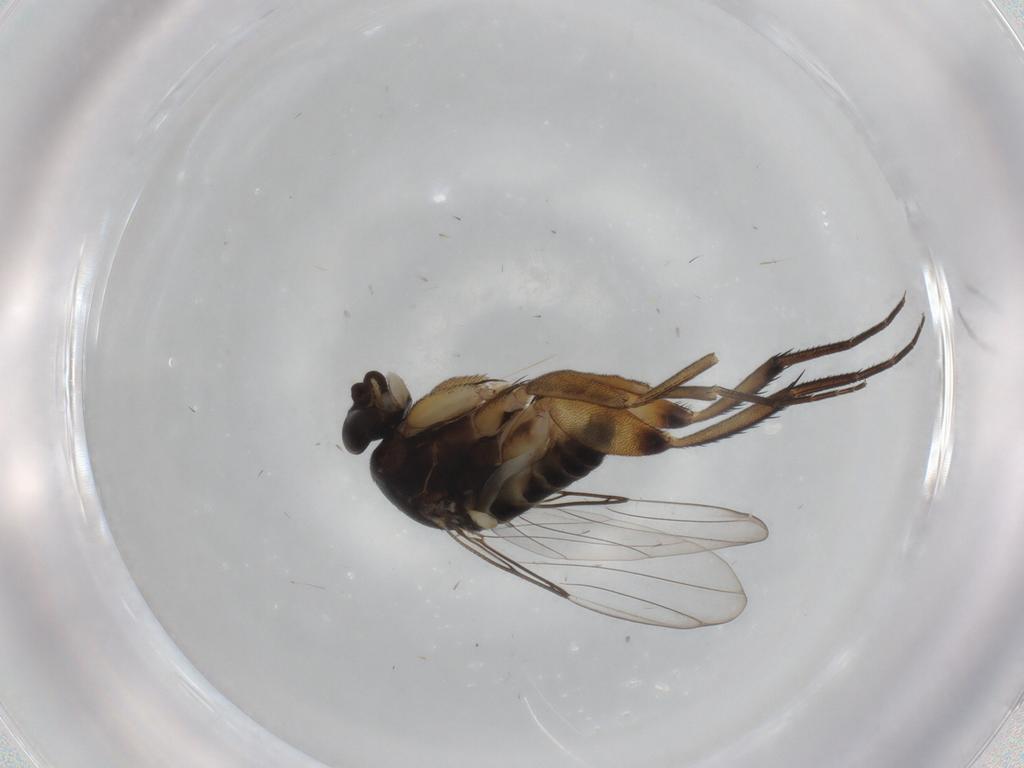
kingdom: Animalia
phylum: Arthropoda
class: Insecta
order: Diptera
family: Phoridae
